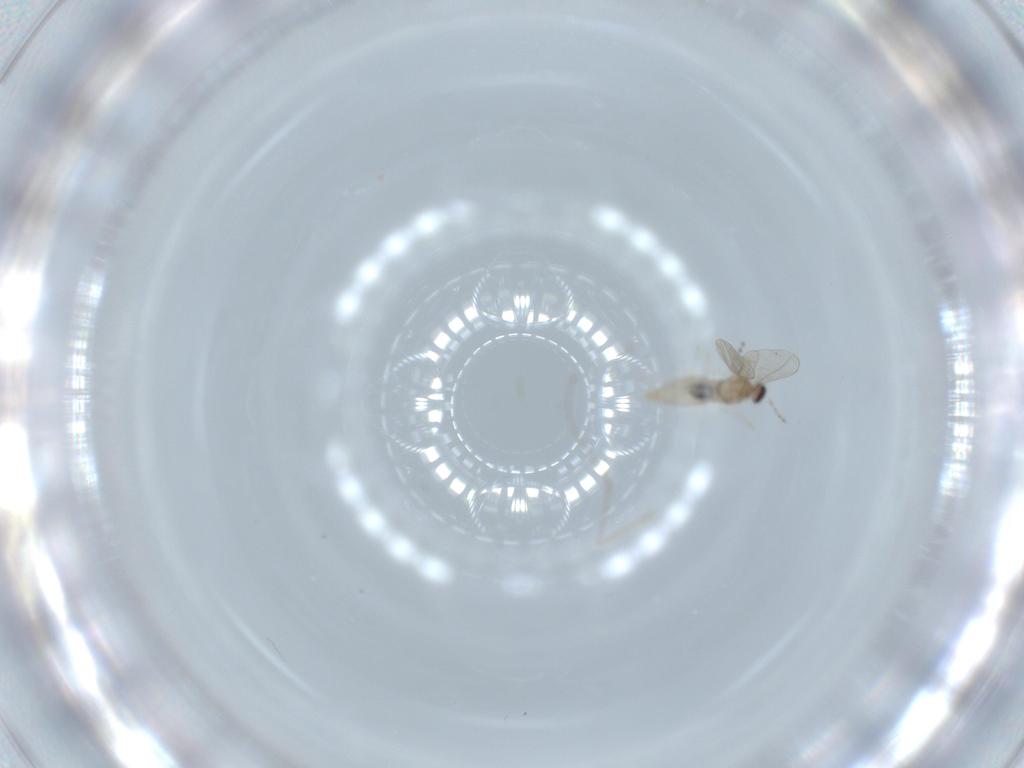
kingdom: Animalia
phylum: Arthropoda
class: Insecta
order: Diptera
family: Cecidomyiidae
